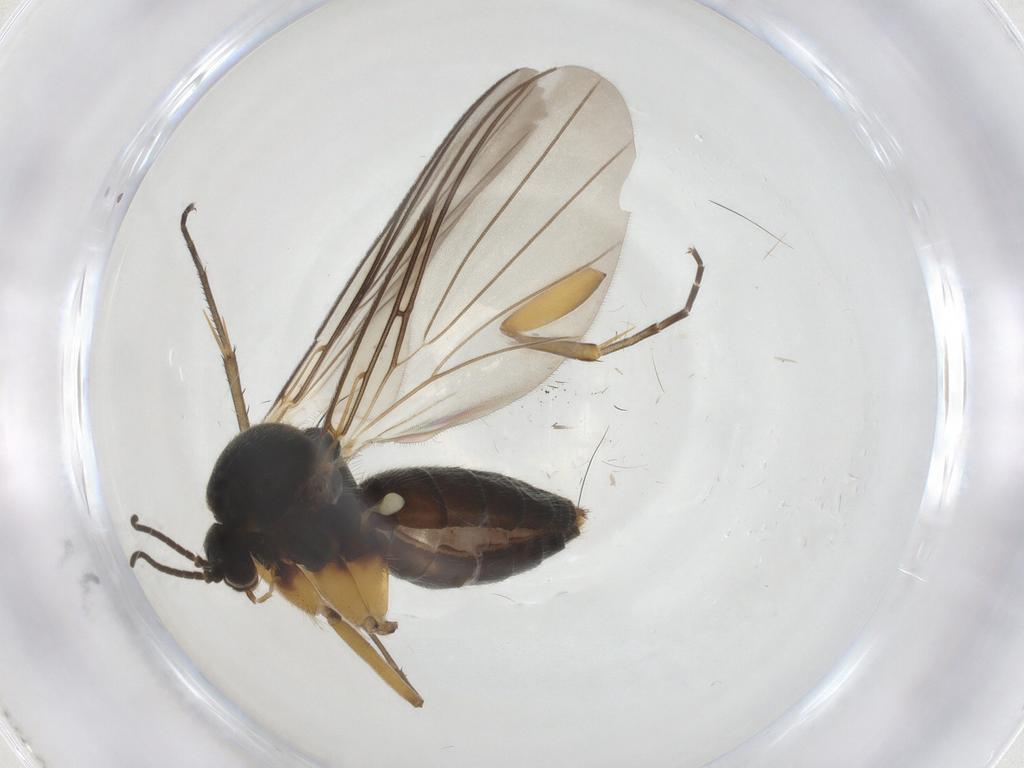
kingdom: Animalia
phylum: Arthropoda
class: Insecta
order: Diptera
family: Mycetophilidae
